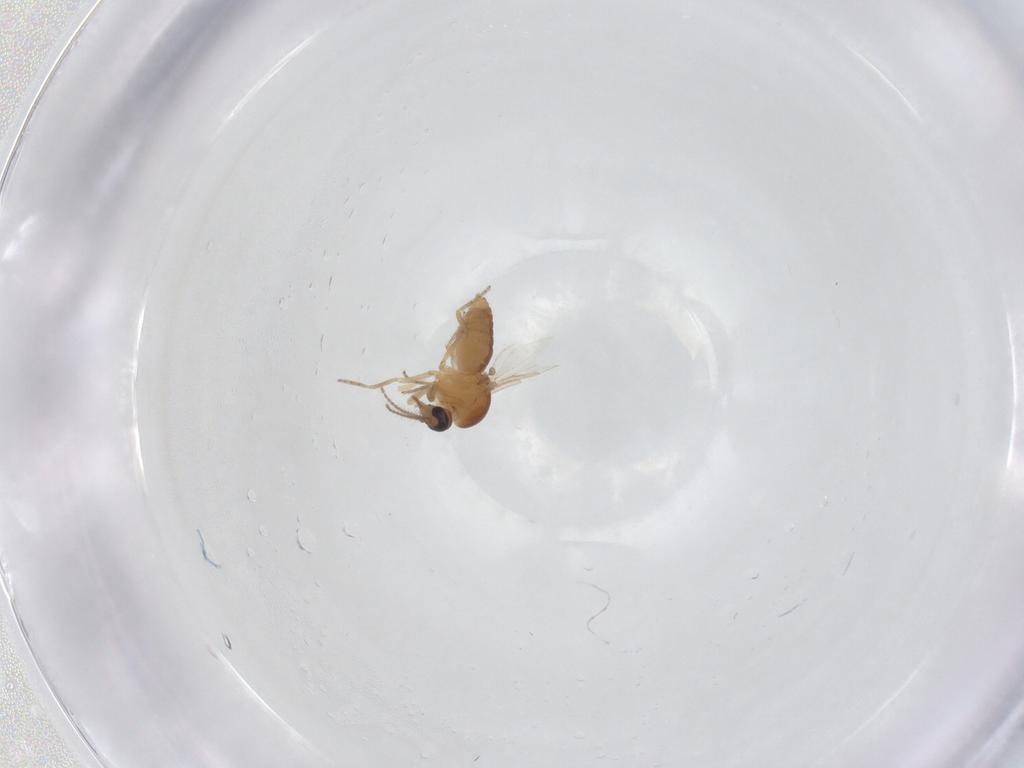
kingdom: Animalia
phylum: Arthropoda
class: Insecta
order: Diptera
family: Ceratopogonidae
